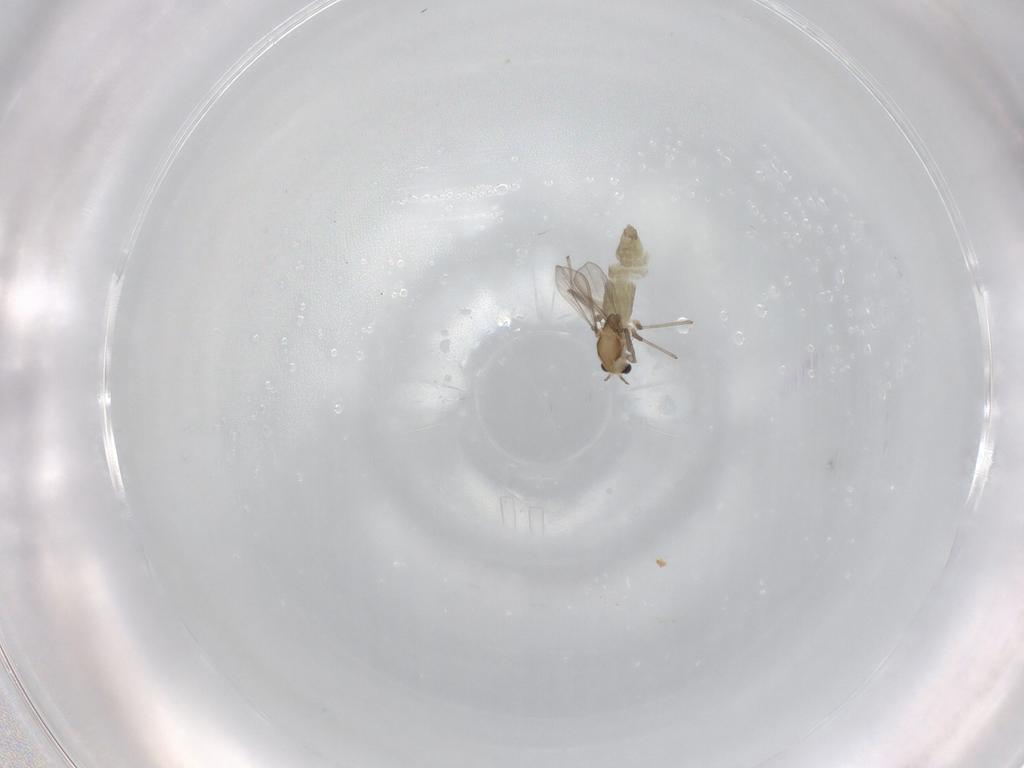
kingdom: Animalia
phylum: Arthropoda
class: Insecta
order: Diptera
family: Chironomidae
